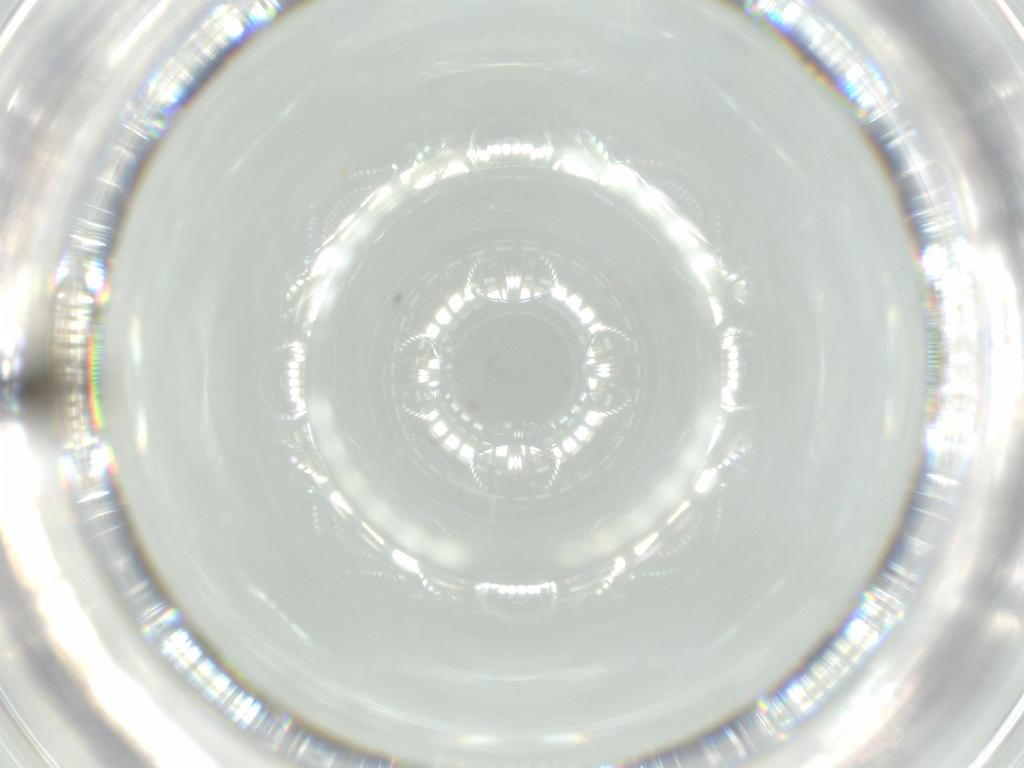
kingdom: Animalia
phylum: Arthropoda
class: Insecta
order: Hymenoptera
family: Scelionidae
